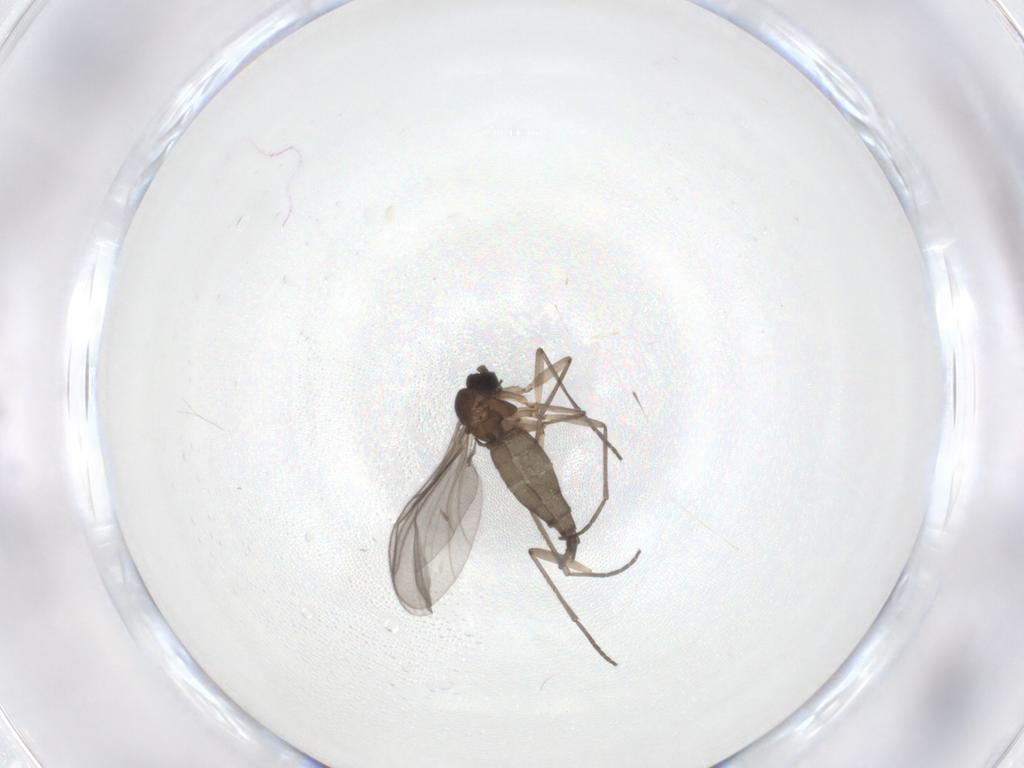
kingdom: Animalia
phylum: Arthropoda
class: Insecta
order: Diptera
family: Sciaridae
